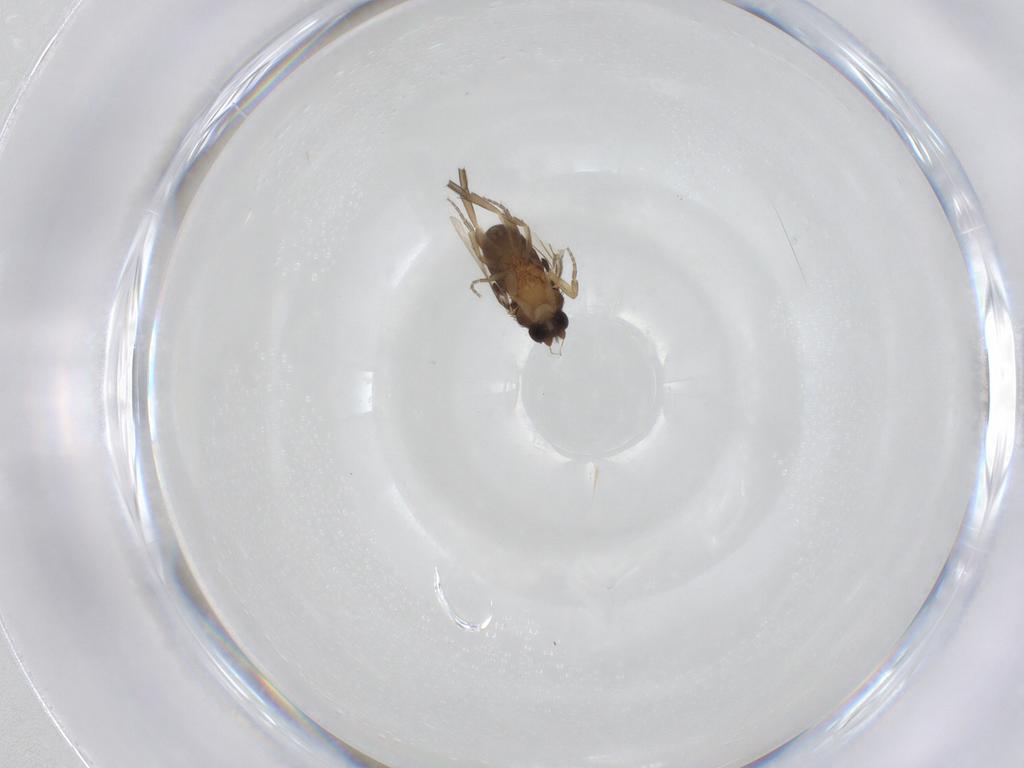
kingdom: Animalia
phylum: Arthropoda
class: Insecta
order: Diptera
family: Phoridae
